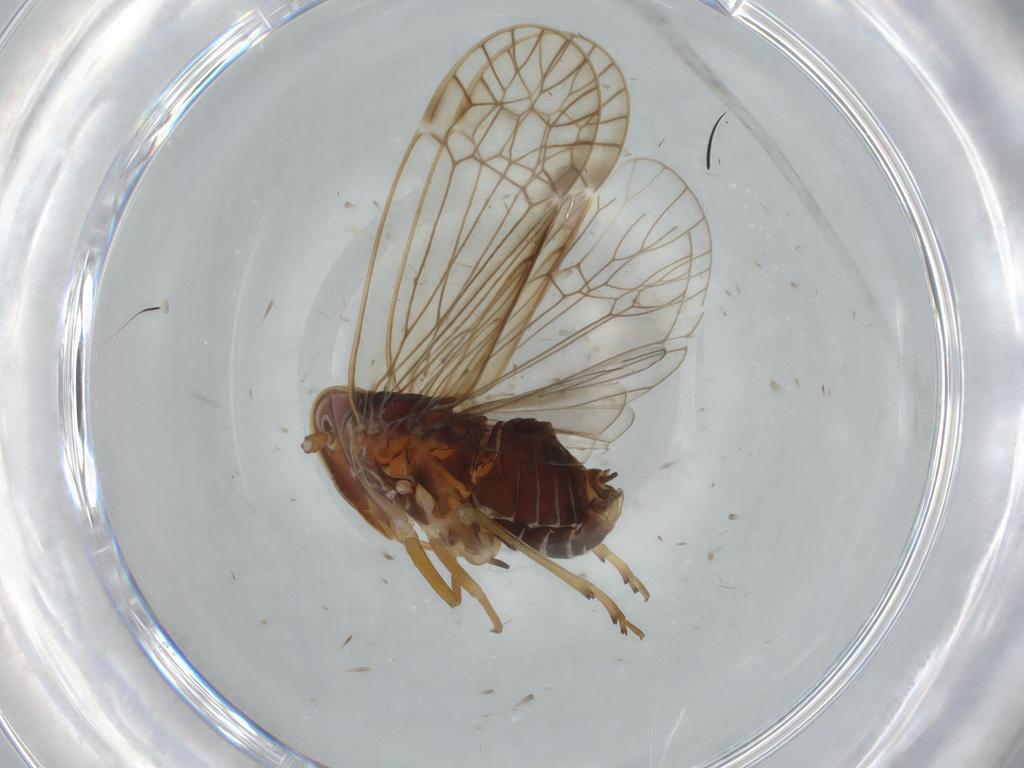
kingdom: Animalia
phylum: Arthropoda
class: Insecta
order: Hemiptera
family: Kinnaridae
